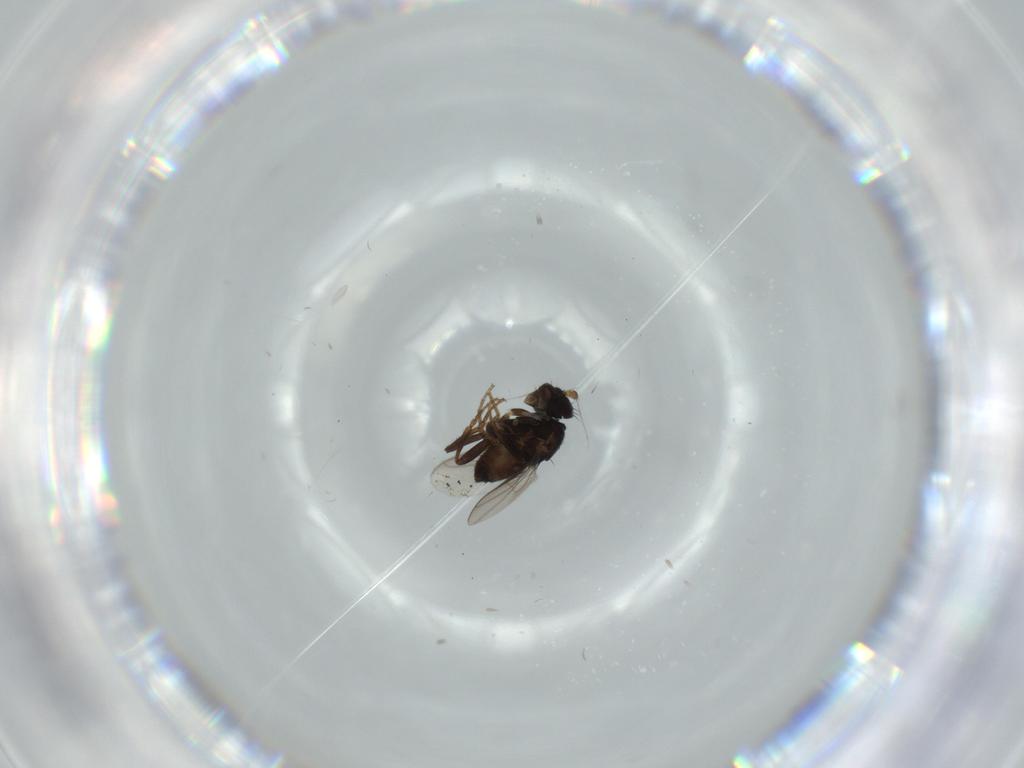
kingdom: Animalia
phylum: Arthropoda
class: Insecta
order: Diptera
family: Sphaeroceridae
